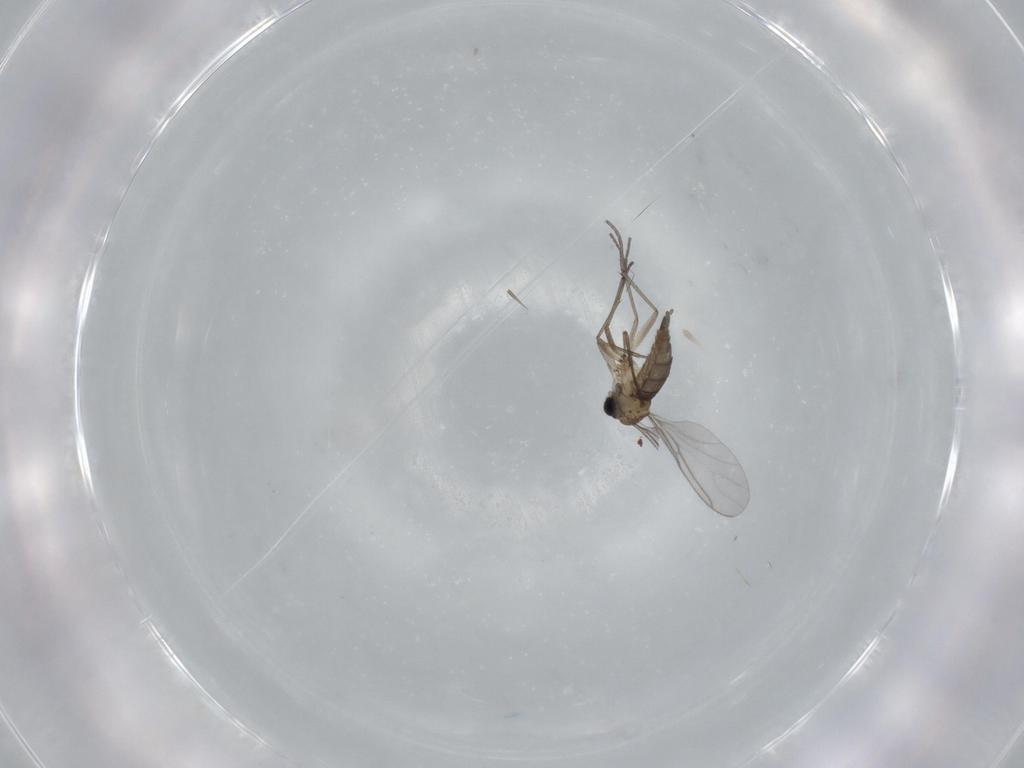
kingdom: Animalia
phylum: Arthropoda
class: Insecta
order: Diptera
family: Sciaridae
